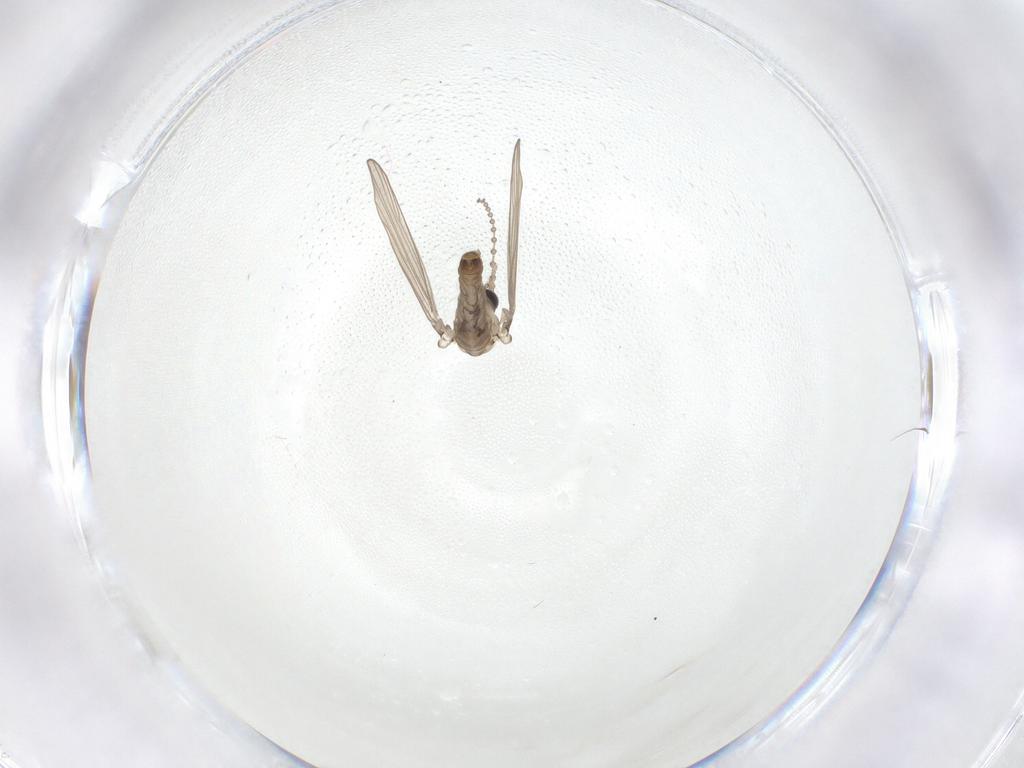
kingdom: Animalia
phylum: Arthropoda
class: Insecta
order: Diptera
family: Psychodidae
